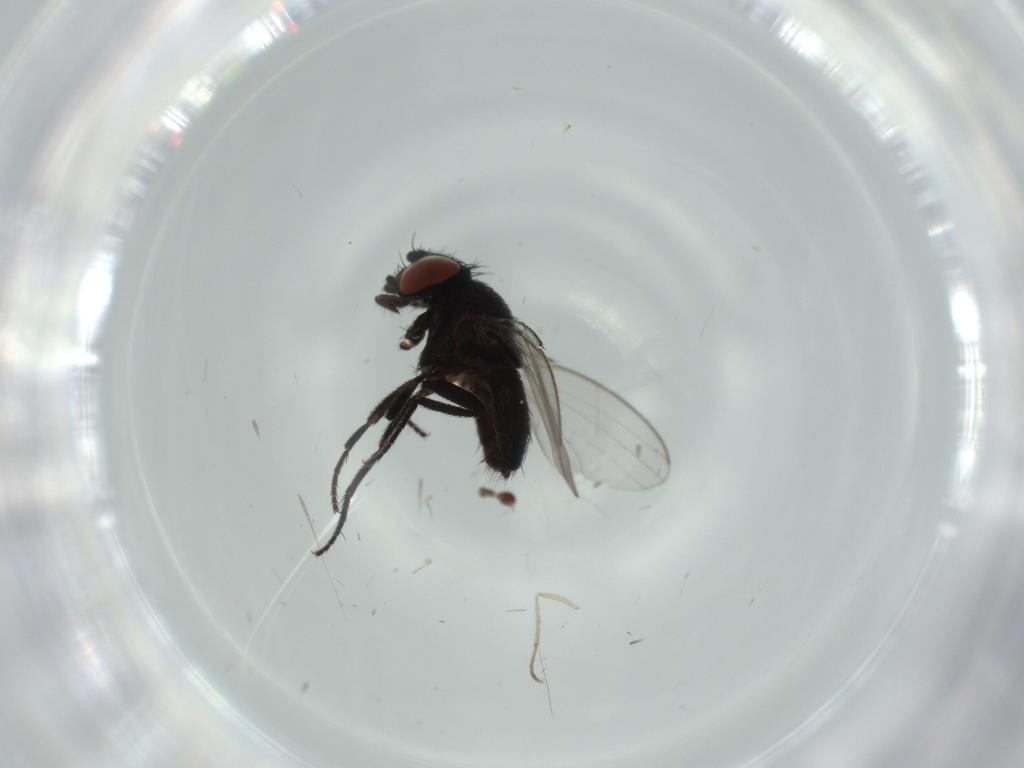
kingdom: Animalia
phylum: Arthropoda
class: Insecta
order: Diptera
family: Milichiidae
